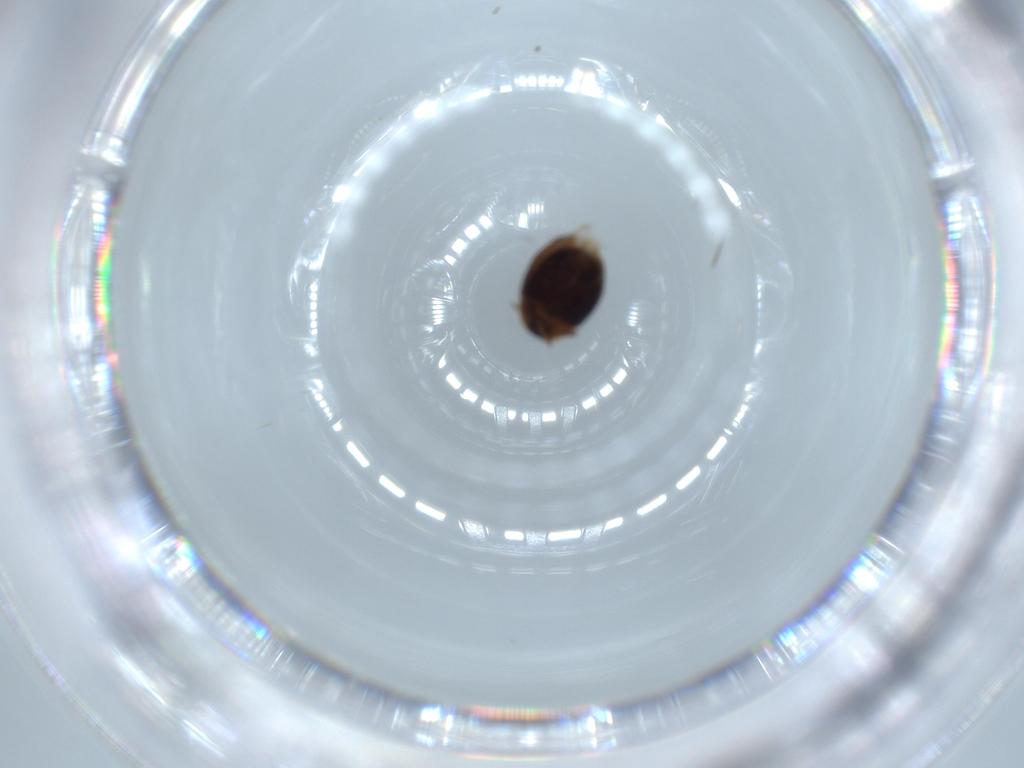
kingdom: Animalia
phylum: Arthropoda
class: Insecta
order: Coleoptera
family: Corylophidae
